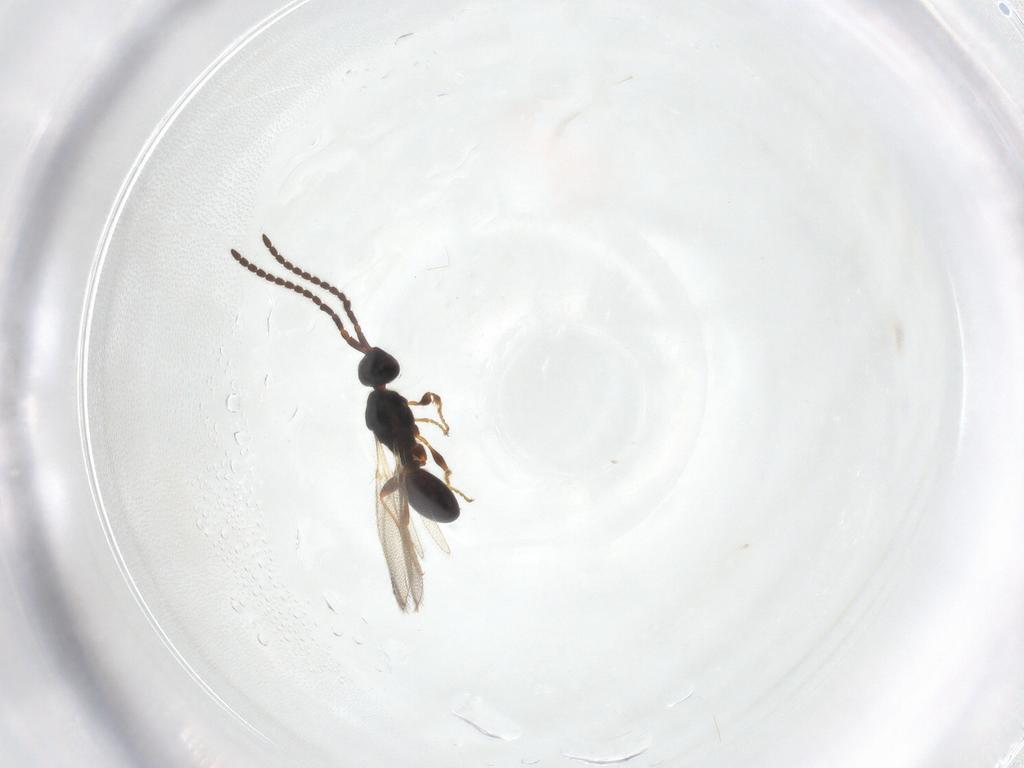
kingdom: Animalia
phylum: Arthropoda
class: Insecta
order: Hymenoptera
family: Diapriidae
